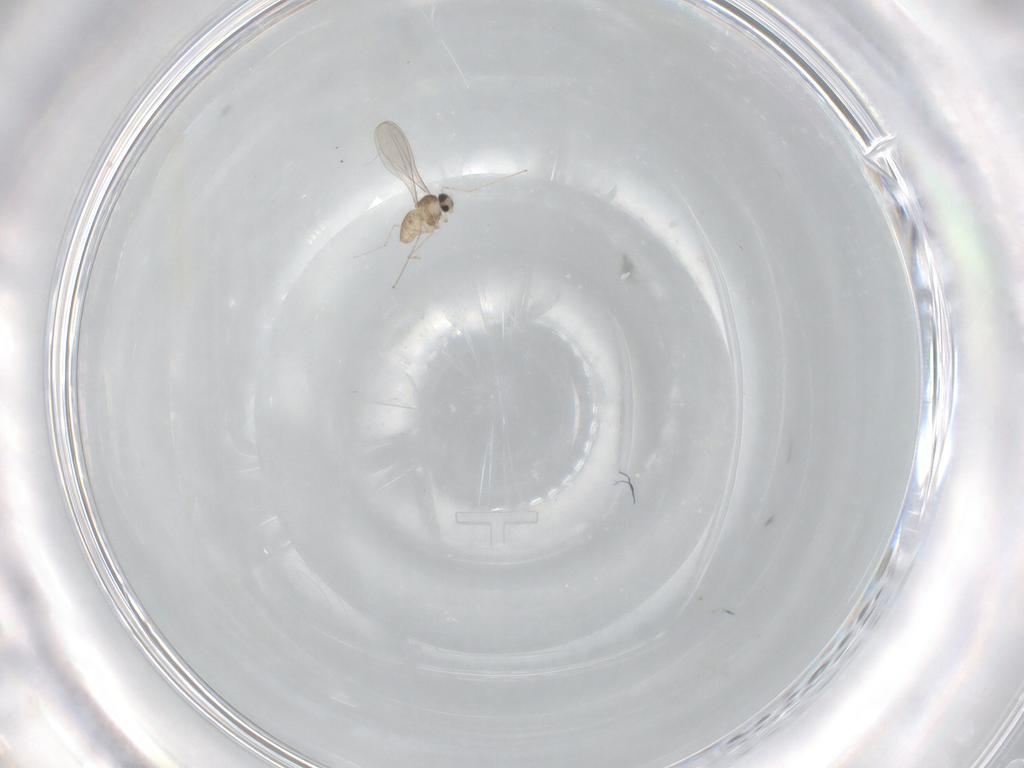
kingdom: Animalia
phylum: Arthropoda
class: Insecta
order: Diptera
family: Cecidomyiidae
